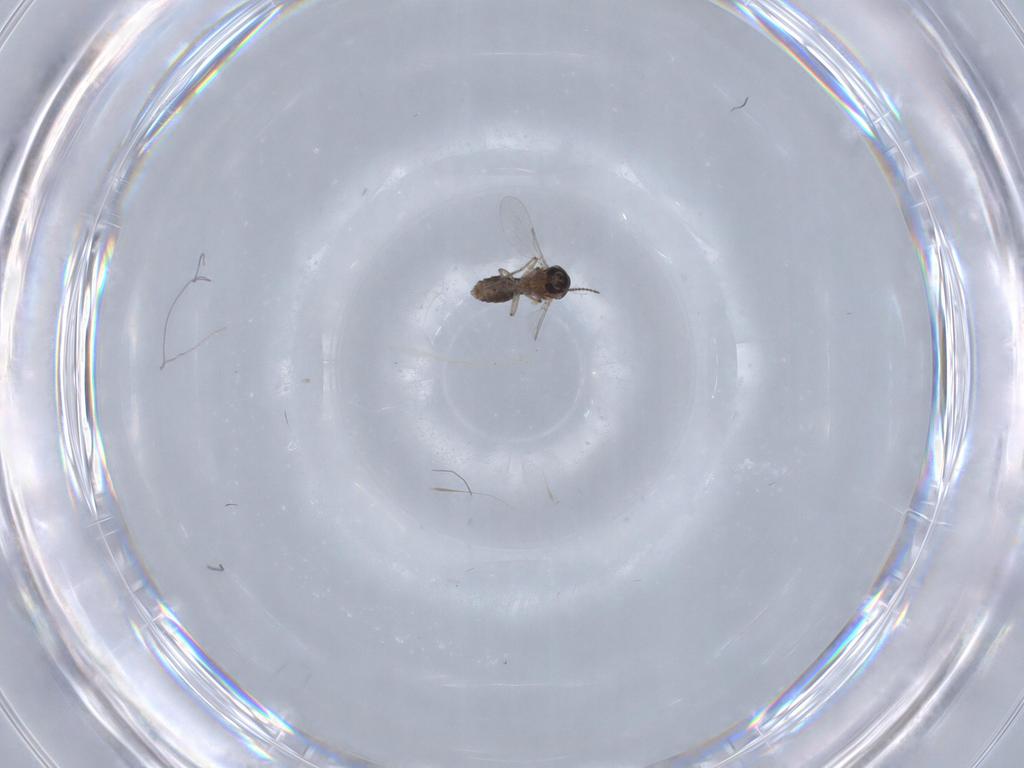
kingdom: Animalia
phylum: Arthropoda
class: Insecta
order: Diptera
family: Ceratopogonidae
